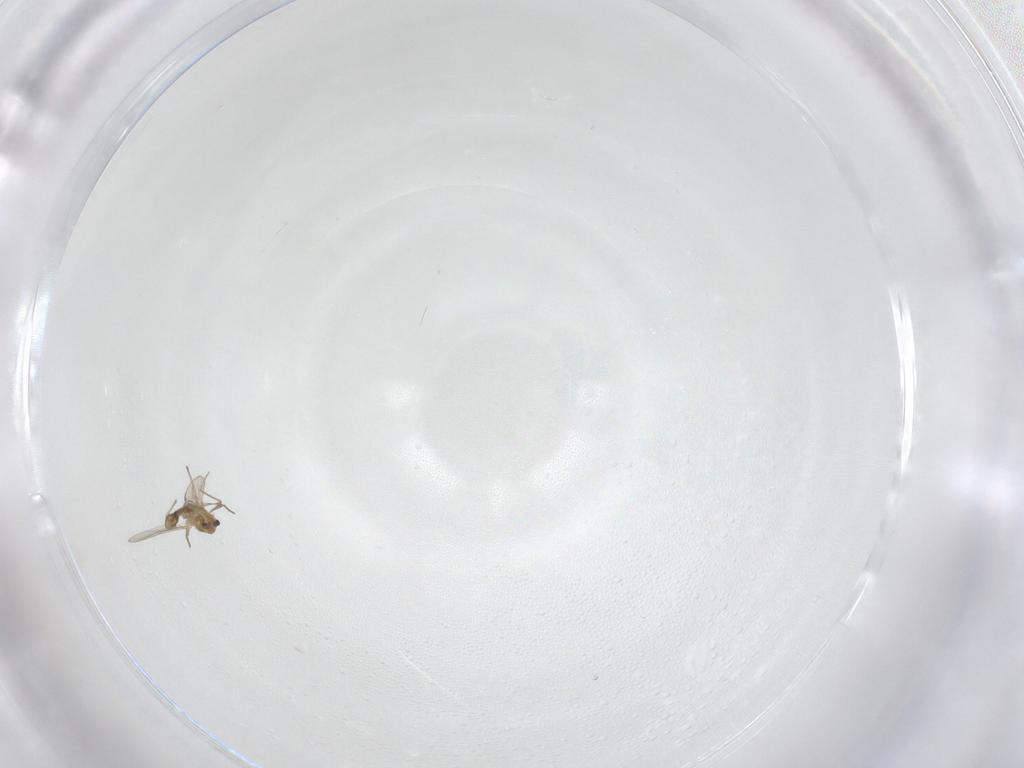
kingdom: Animalia
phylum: Arthropoda
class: Insecta
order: Diptera
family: Chironomidae
